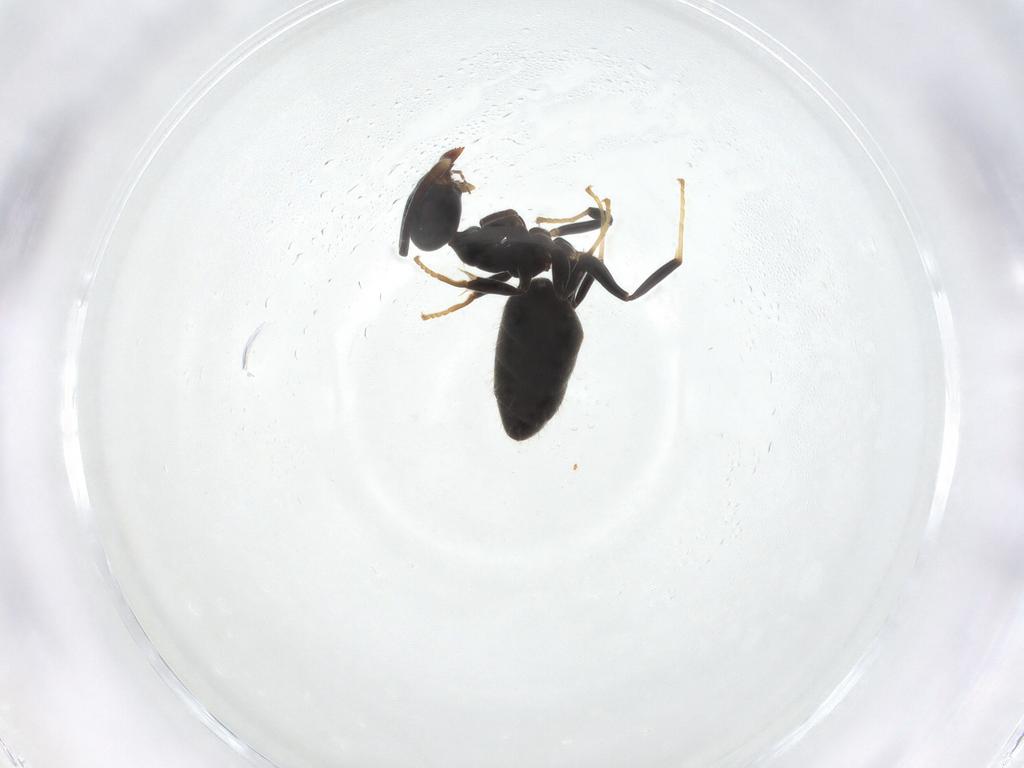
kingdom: Animalia
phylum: Arthropoda
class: Insecta
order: Hymenoptera
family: Formicidae
